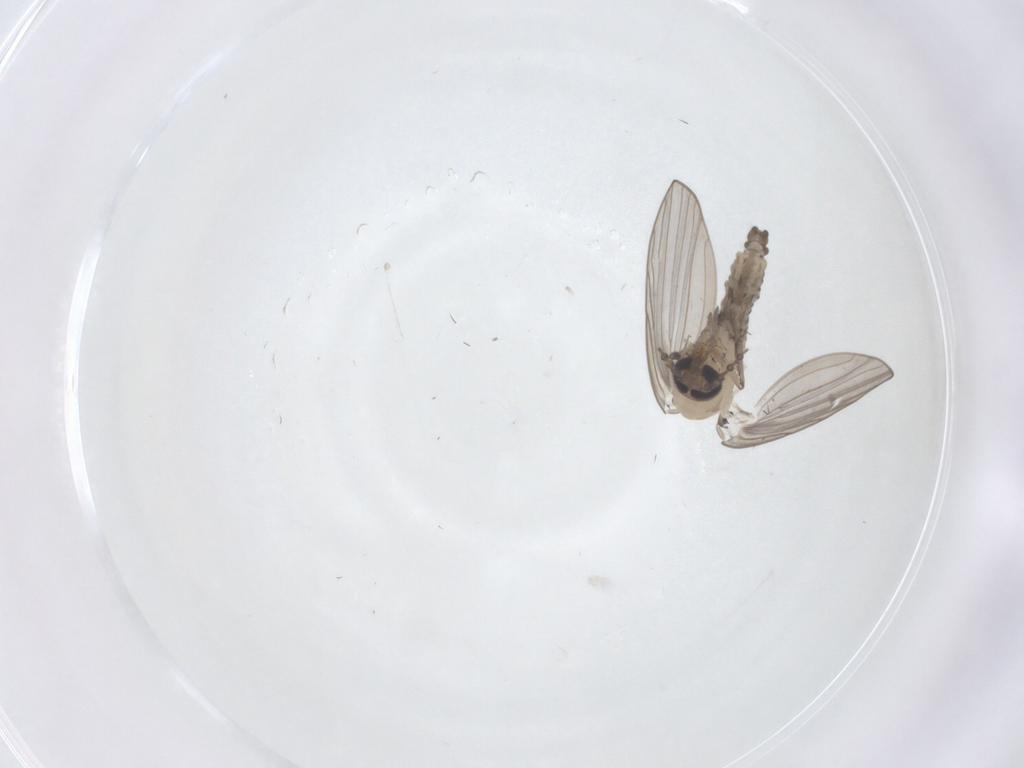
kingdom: Animalia
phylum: Arthropoda
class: Insecta
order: Diptera
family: Psychodidae
